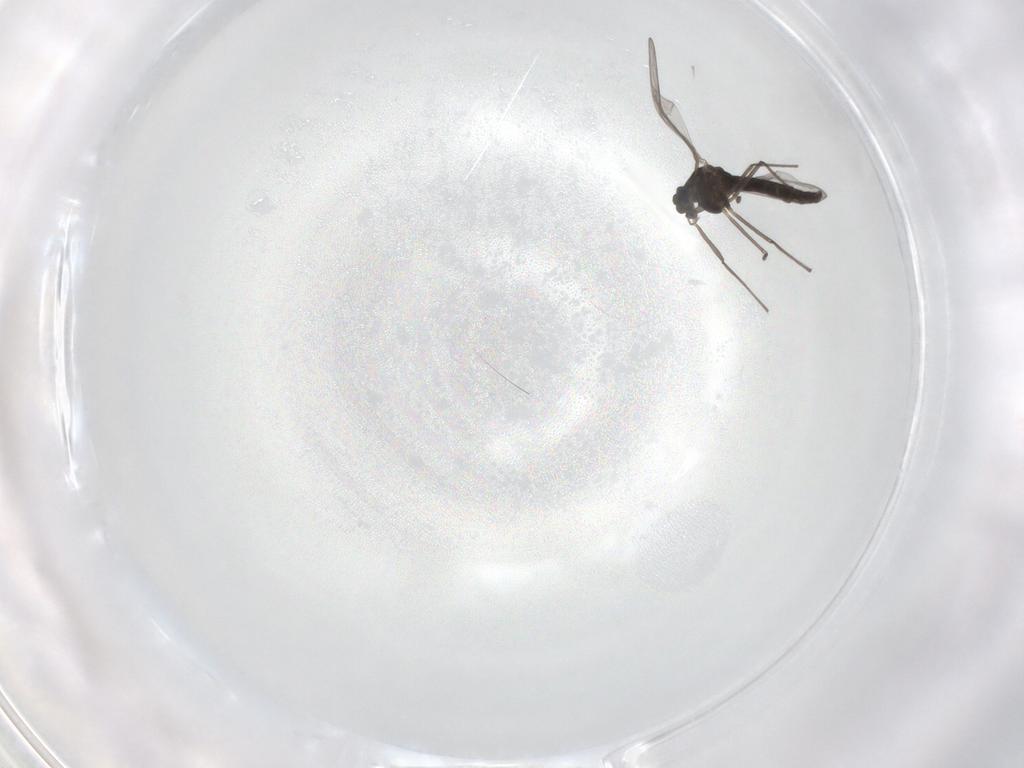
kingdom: Animalia
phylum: Arthropoda
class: Insecta
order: Diptera
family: Chironomidae
